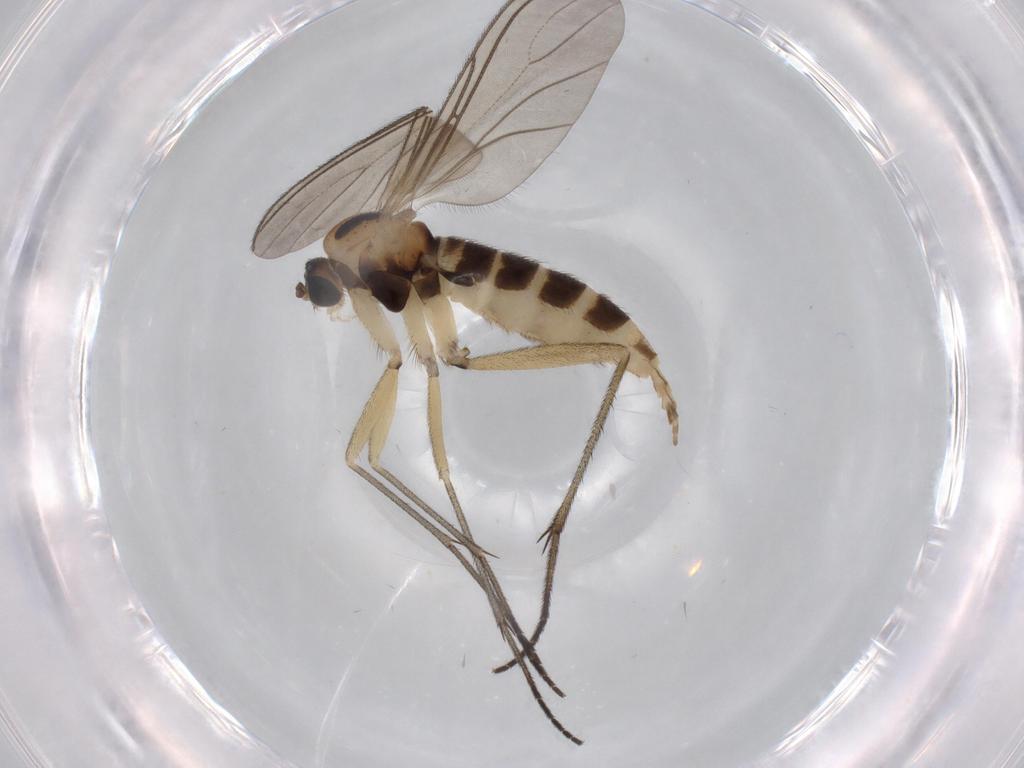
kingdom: Animalia
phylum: Arthropoda
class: Insecta
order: Diptera
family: Sciaridae
